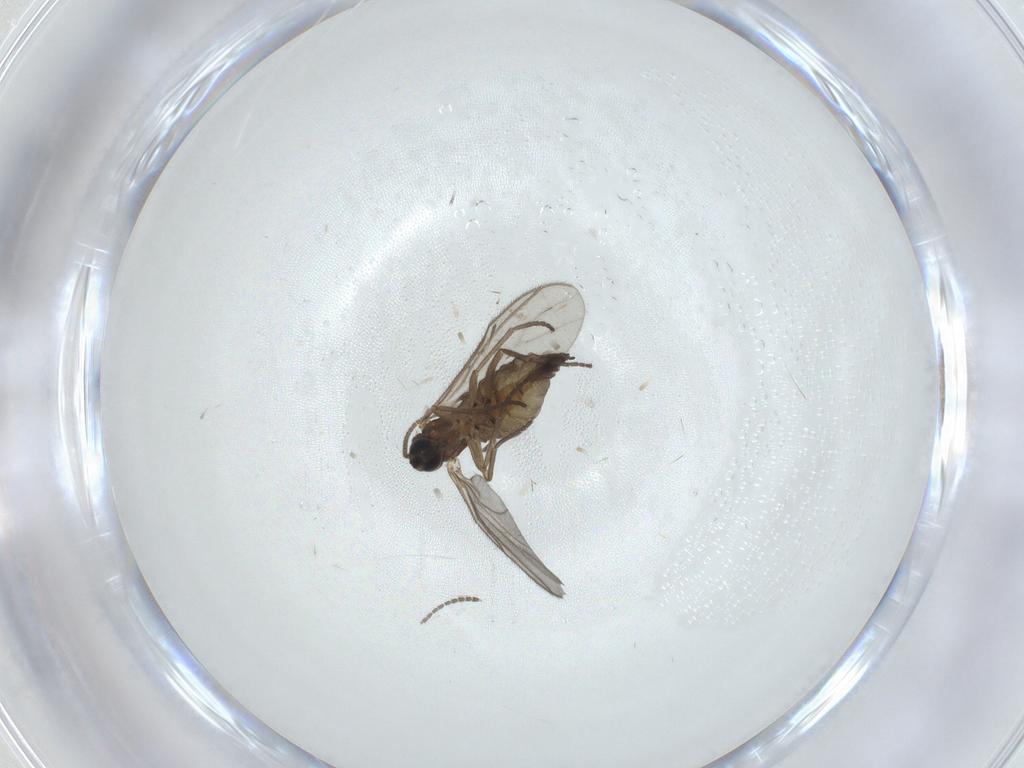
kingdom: Animalia
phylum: Arthropoda
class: Insecta
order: Diptera
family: Sciaridae
